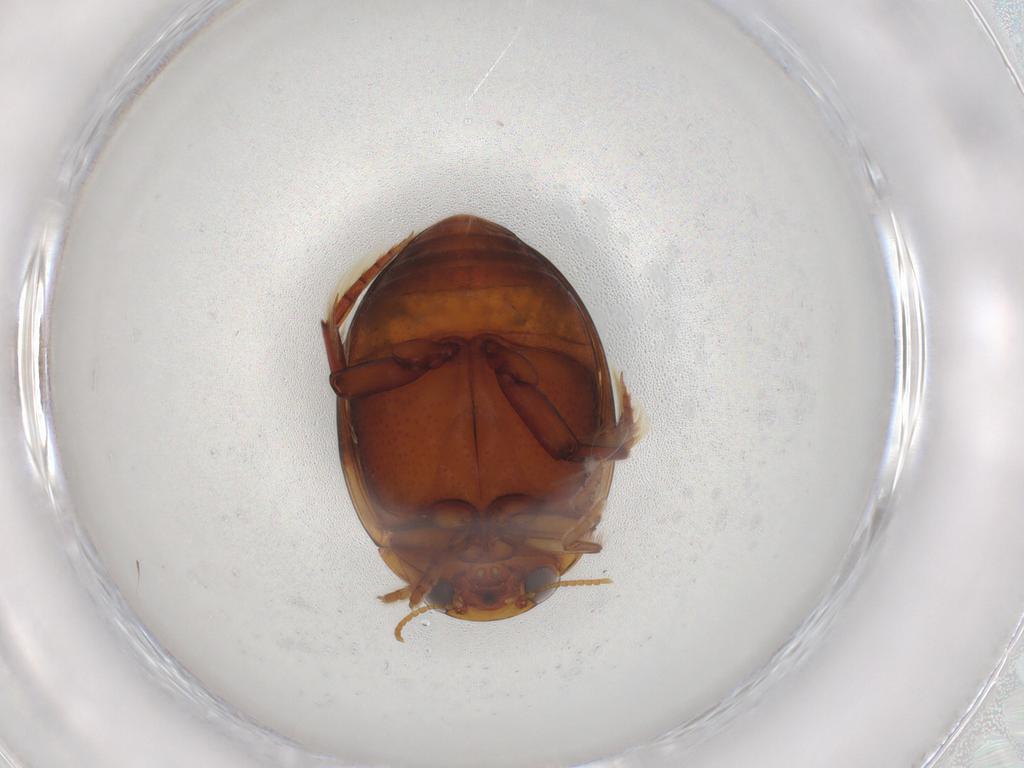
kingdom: Animalia
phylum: Arthropoda
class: Insecta
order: Coleoptera
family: Dytiscidae
